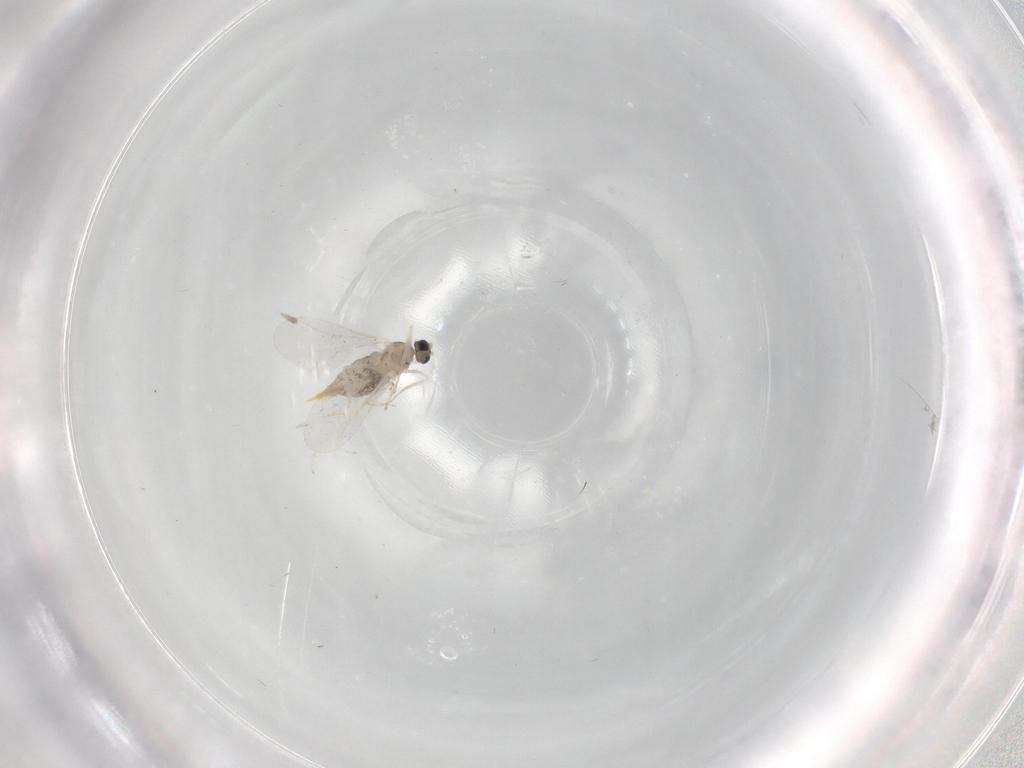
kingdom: Animalia
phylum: Arthropoda
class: Insecta
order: Diptera
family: Cecidomyiidae
